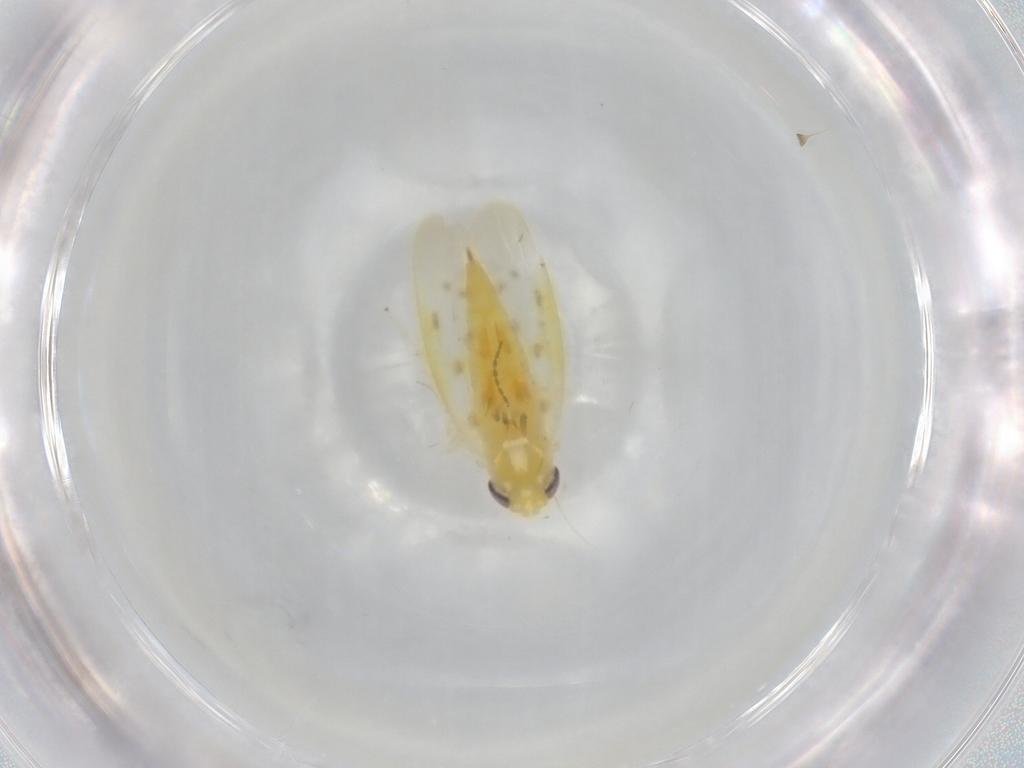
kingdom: Animalia
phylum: Arthropoda
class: Insecta
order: Hemiptera
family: Cicadellidae
